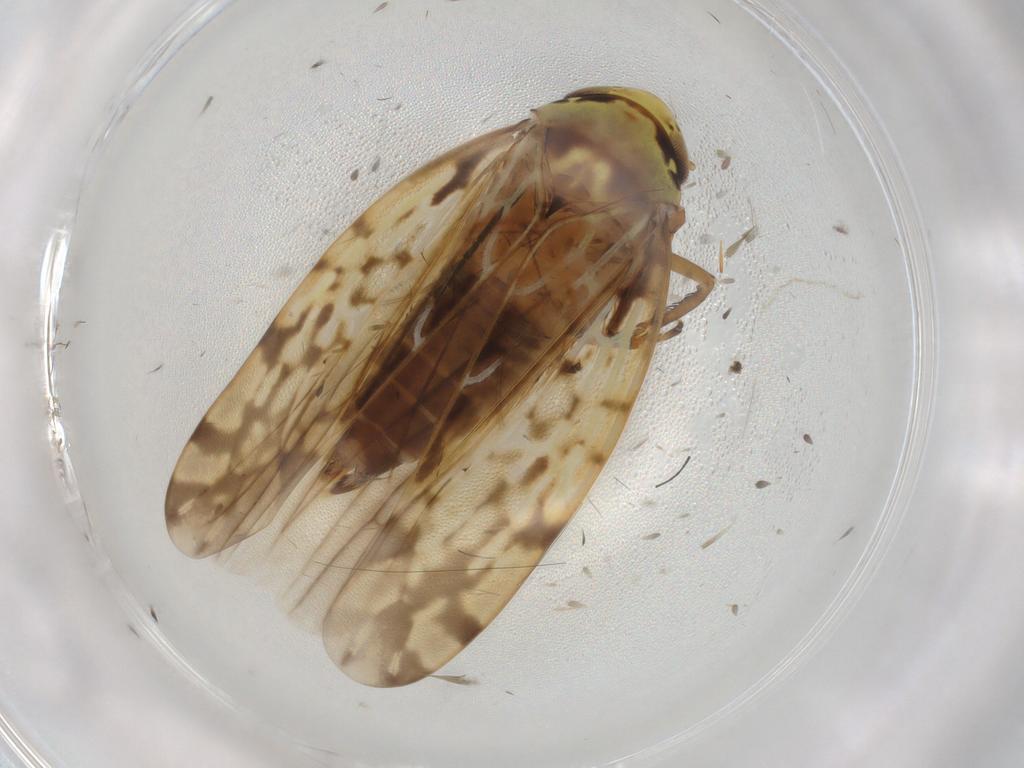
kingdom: Animalia
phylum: Arthropoda
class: Insecta
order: Hemiptera
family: Cicadellidae
